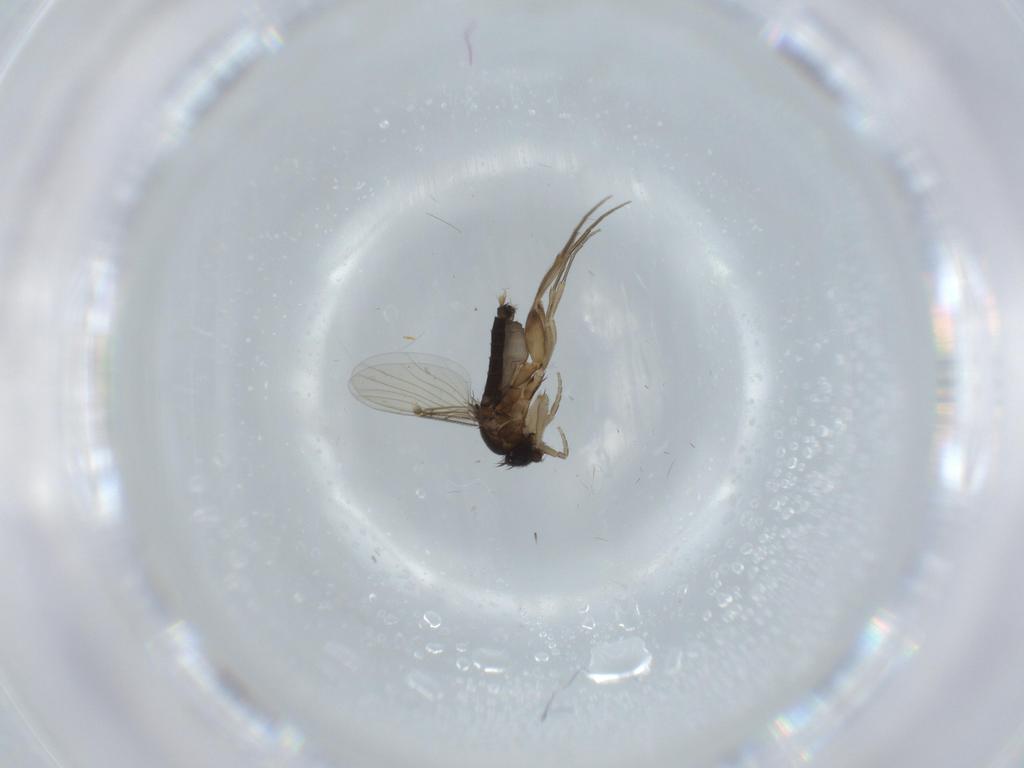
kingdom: Animalia
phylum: Arthropoda
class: Insecta
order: Diptera
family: Phoridae
